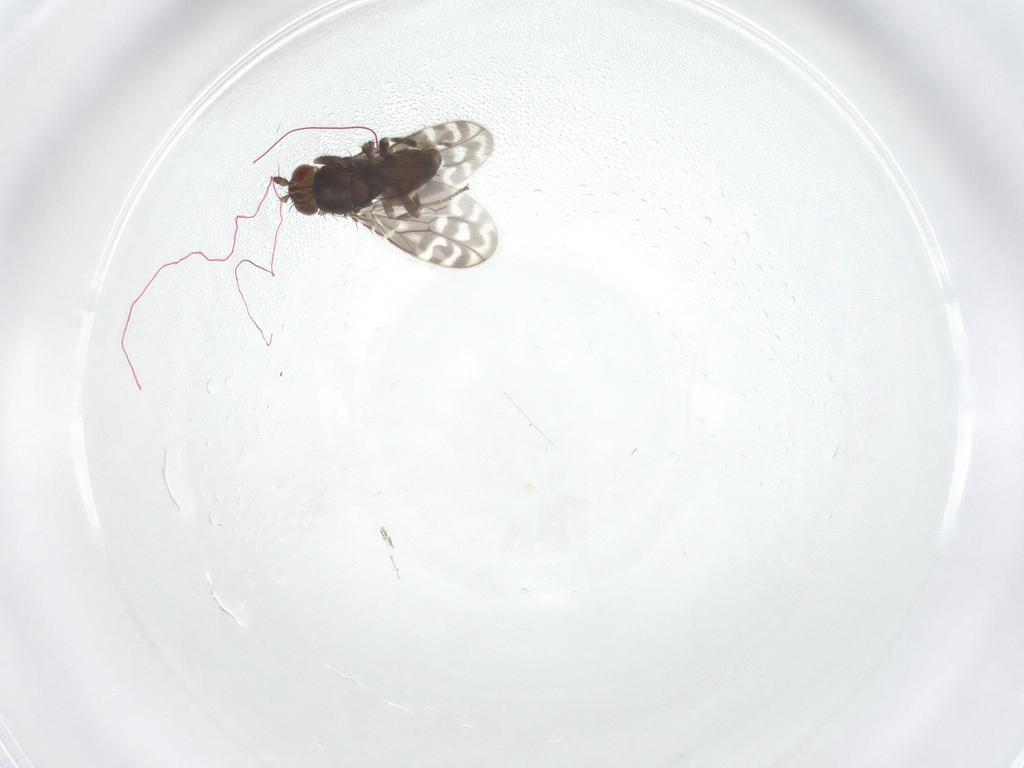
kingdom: Animalia
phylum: Arthropoda
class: Insecta
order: Diptera
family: Sphaeroceridae
